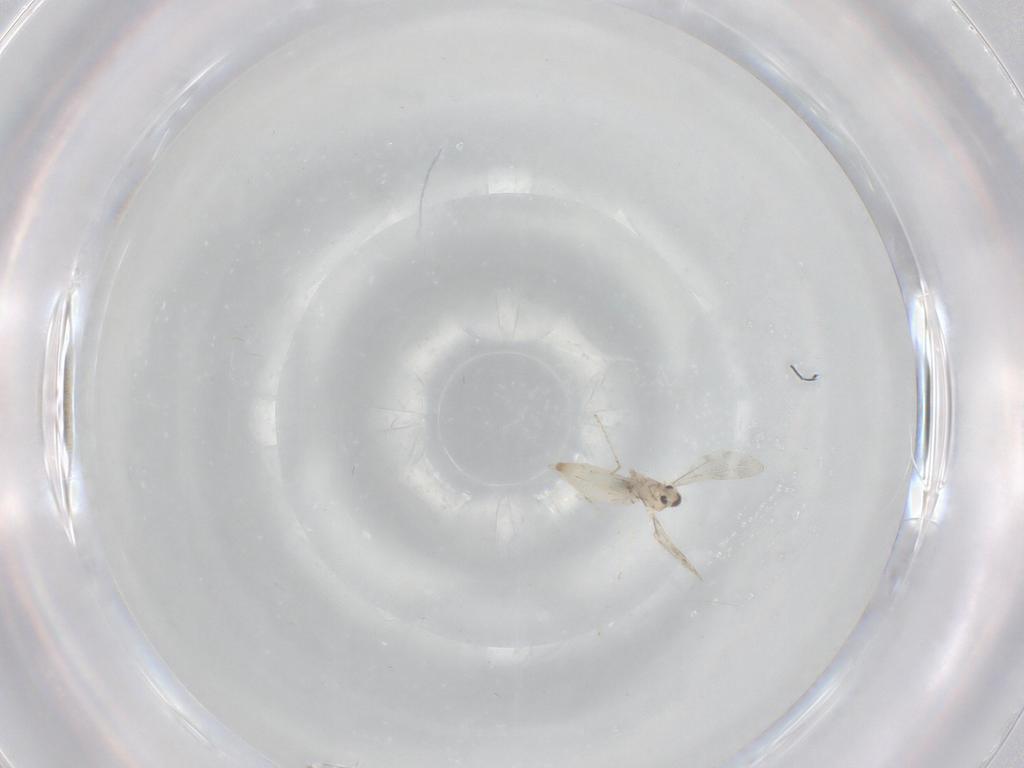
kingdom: Animalia
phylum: Arthropoda
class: Insecta
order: Diptera
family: Cecidomyiidae
